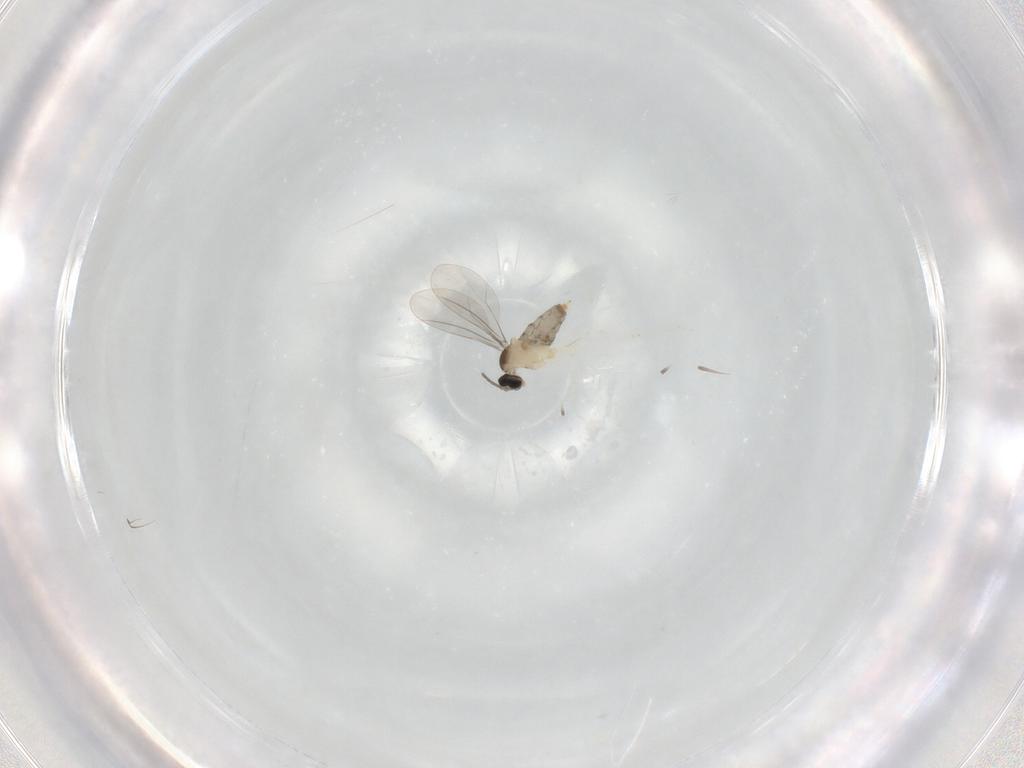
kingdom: Animalia
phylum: Arthropoda
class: Insecta
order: Diptera
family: Cecidomyiidae
